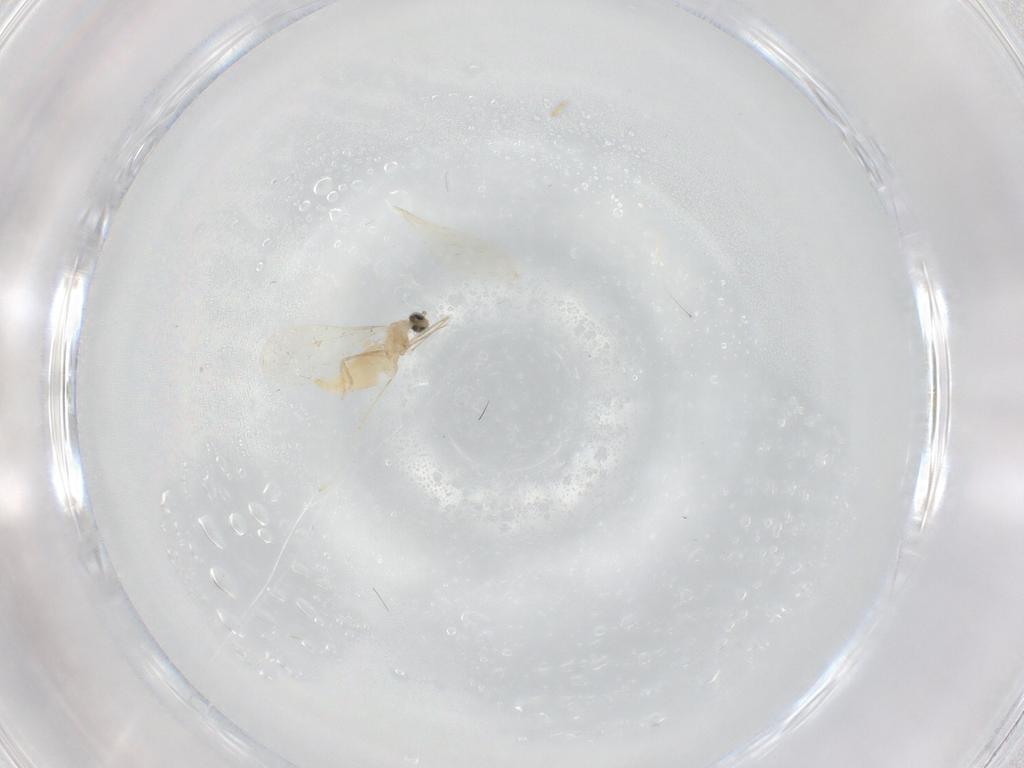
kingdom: Animalia
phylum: Arthropoda
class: Insecta
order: Diptera
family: Cecidomyiidae
